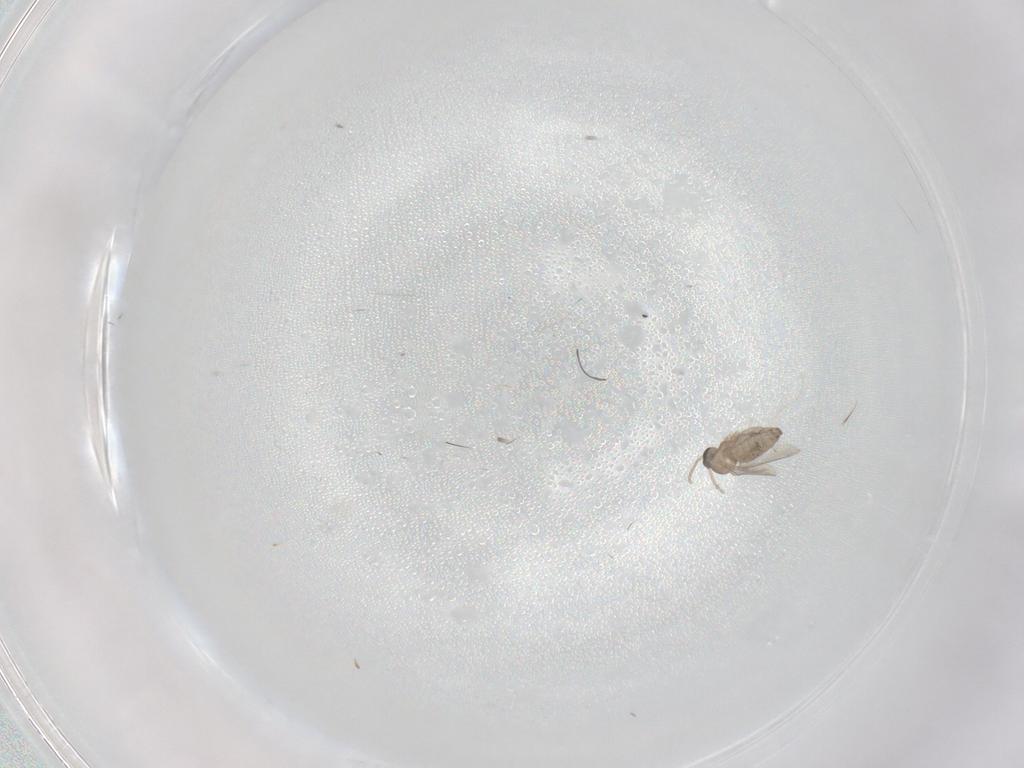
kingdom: Animalia
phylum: Arthropoda
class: Insecta
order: Diptera
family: Cecidomyiidae
